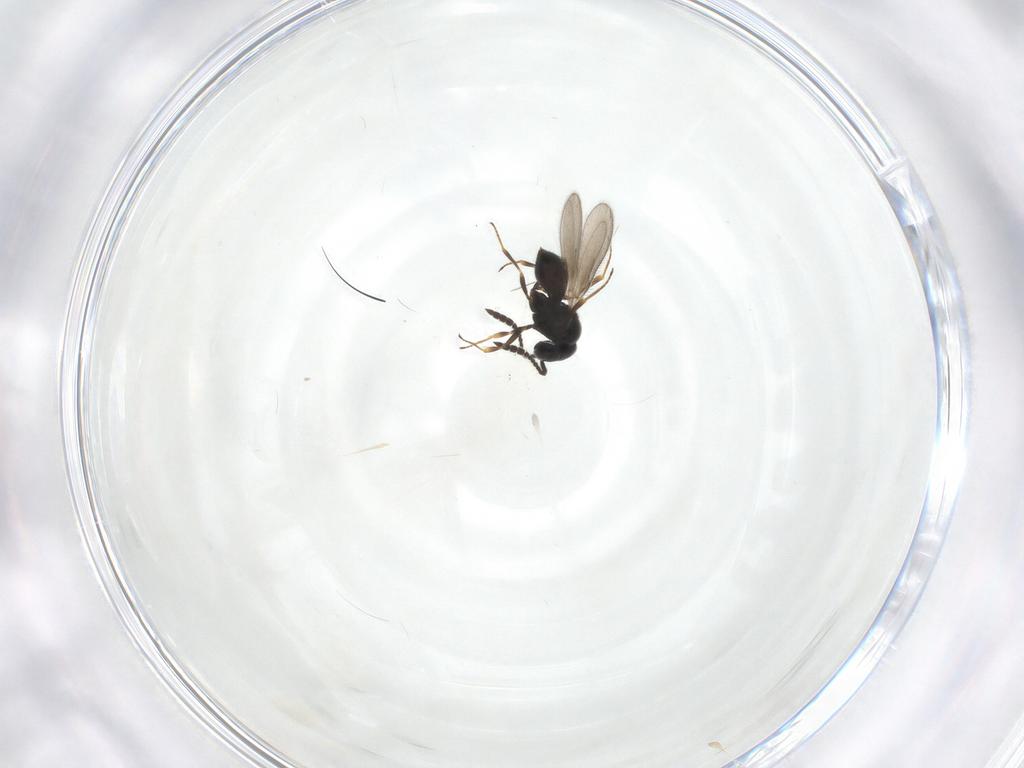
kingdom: Animalia
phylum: Arthropoda
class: Insecta
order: Hymenoptera
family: Scelionidae
